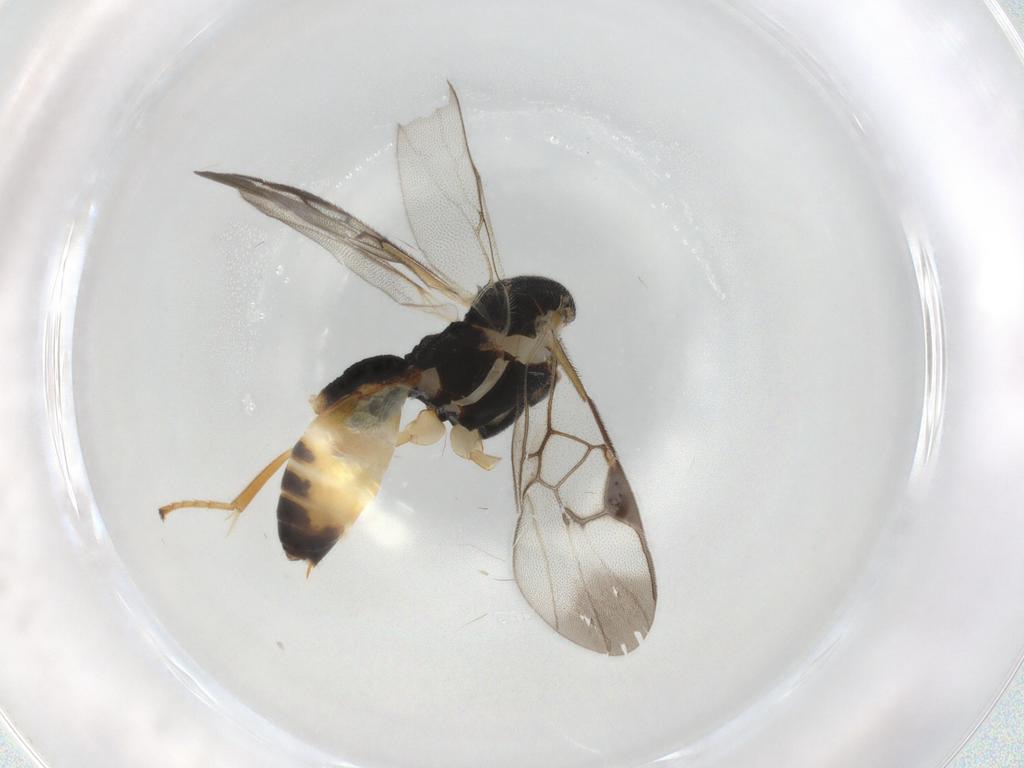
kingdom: Animalia
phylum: Arthropoda
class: Insecta
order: Hymenoptera
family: Braconidae
